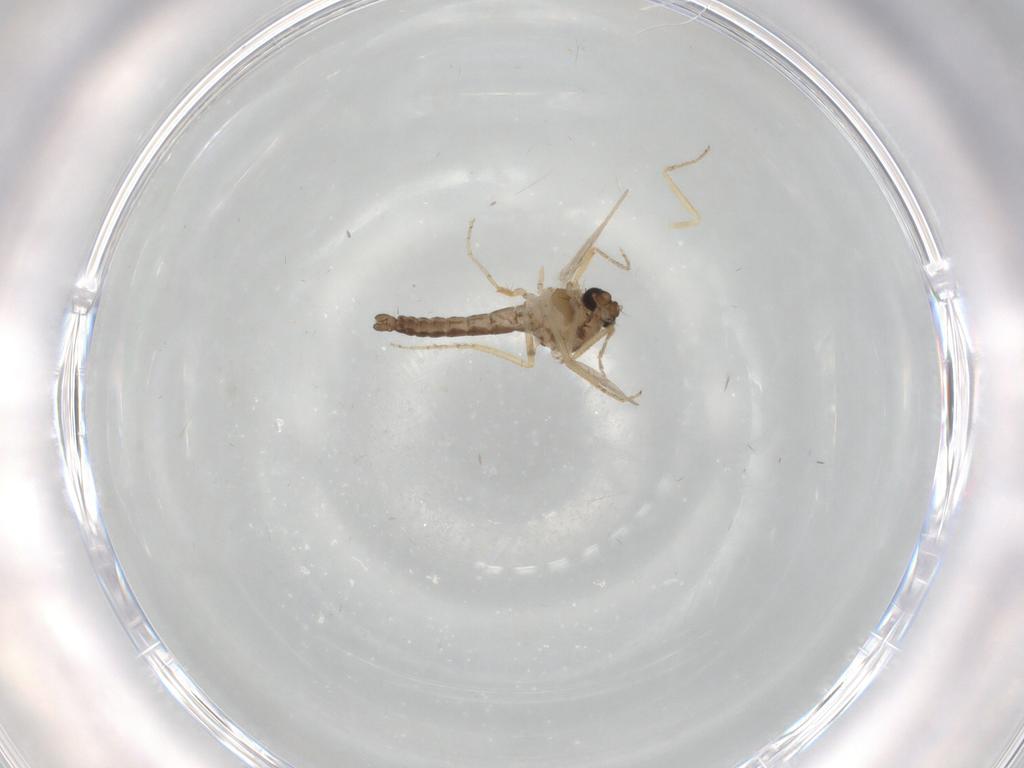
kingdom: Animalia
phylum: Arthropoda
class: Insecta
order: Diptera
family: Ceratopogonidae
